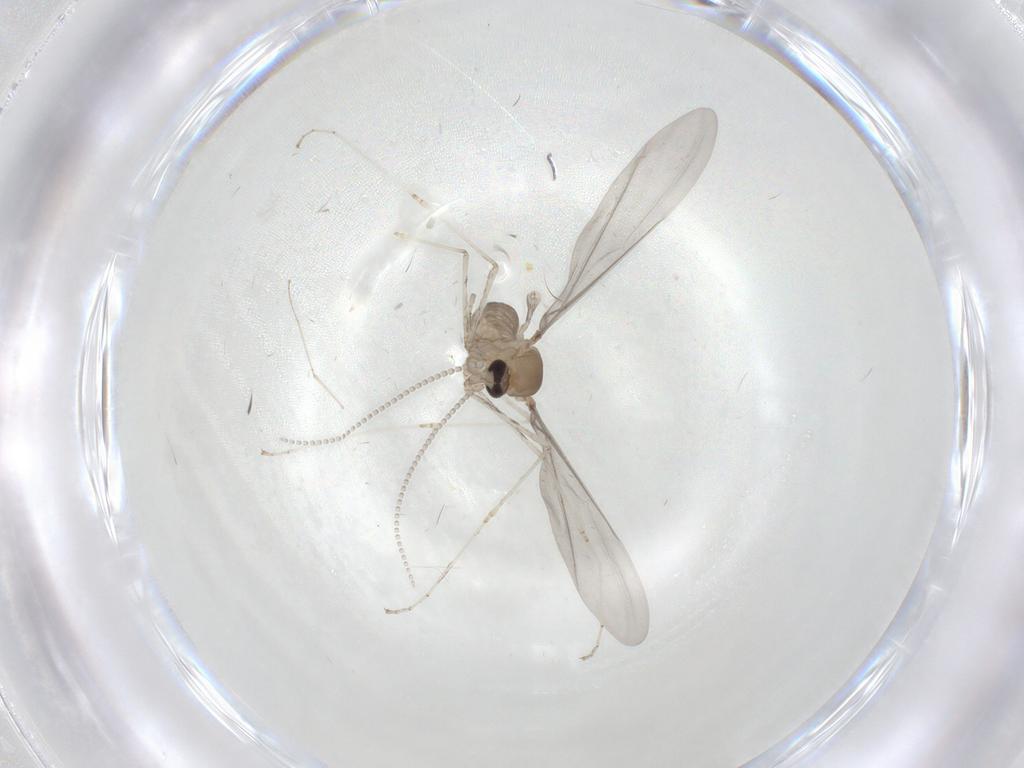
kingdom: Animalia
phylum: Arthropoda
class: Insecta
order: Diptera
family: Cecidomyiidae
